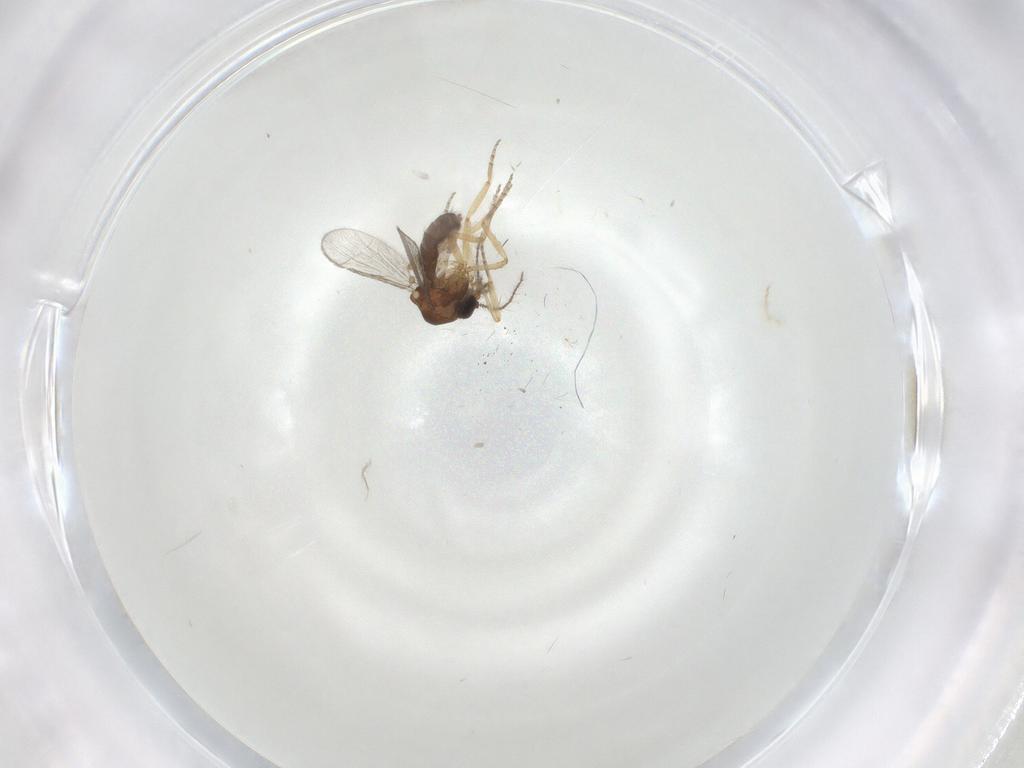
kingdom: Animalia
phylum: Arthropoda
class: Insecta
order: Diptera
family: Ceratopogonidae
